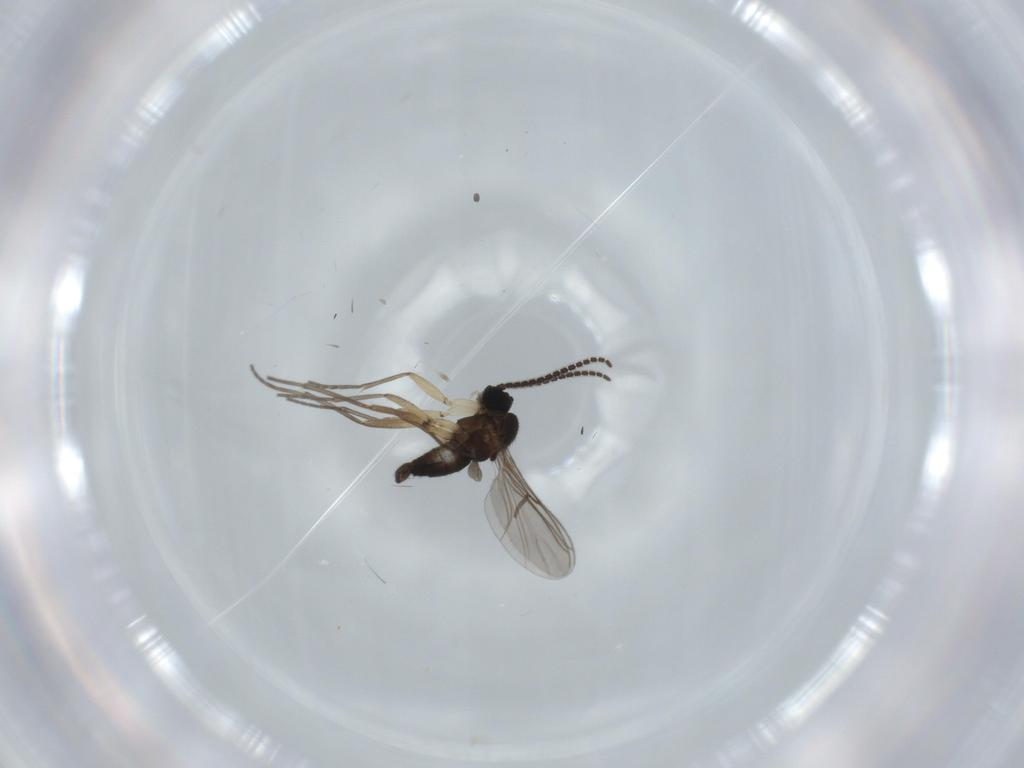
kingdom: Animalia
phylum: Arthropoda
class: Insecta
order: Diptera
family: Sciaridae
